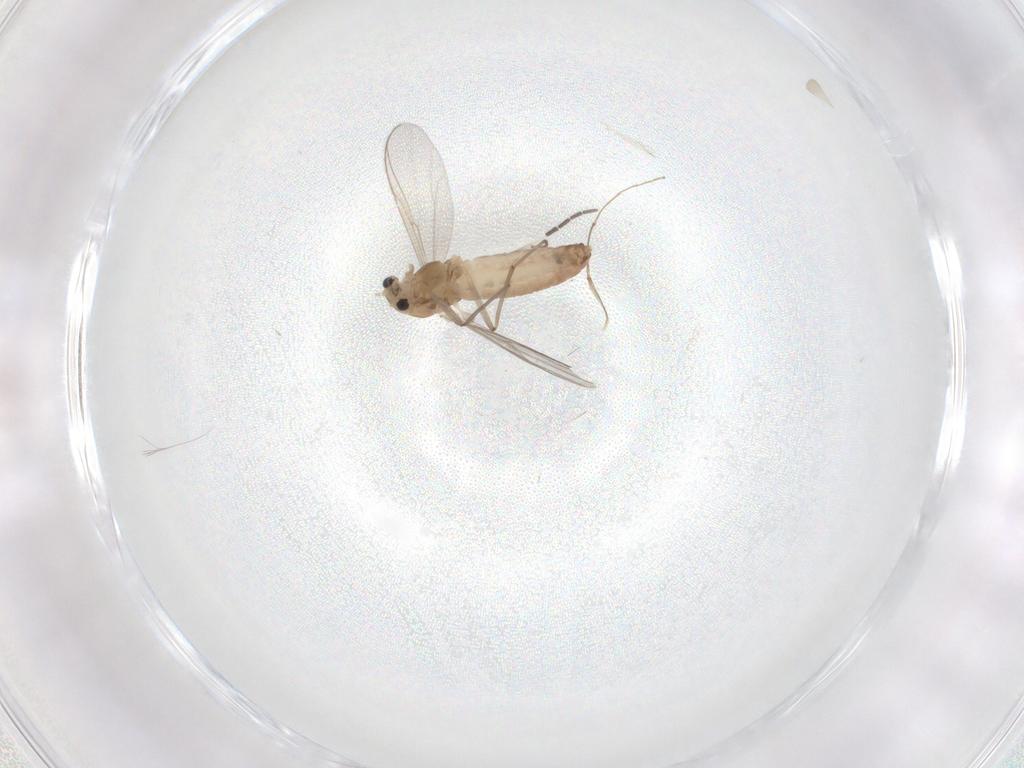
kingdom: Animalia
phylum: Arthropoda
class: Insecta
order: Diptera
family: Chironomidae
